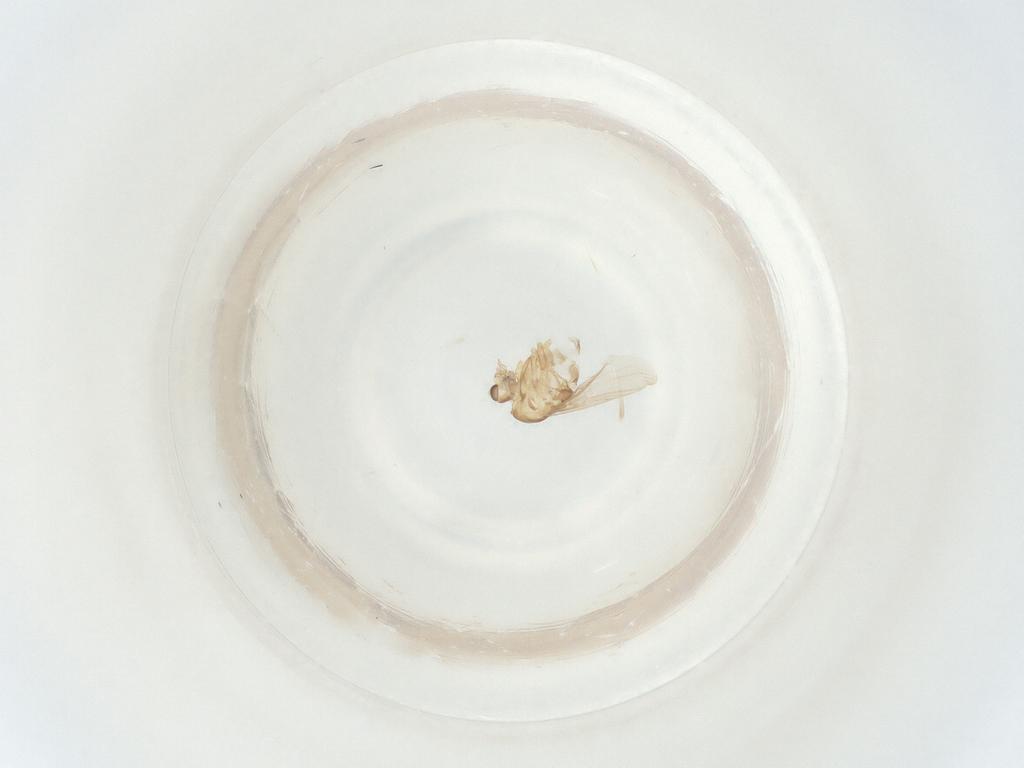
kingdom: Animalia
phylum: Arthropoda
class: Insecta
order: Diptera
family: Chironomidae
